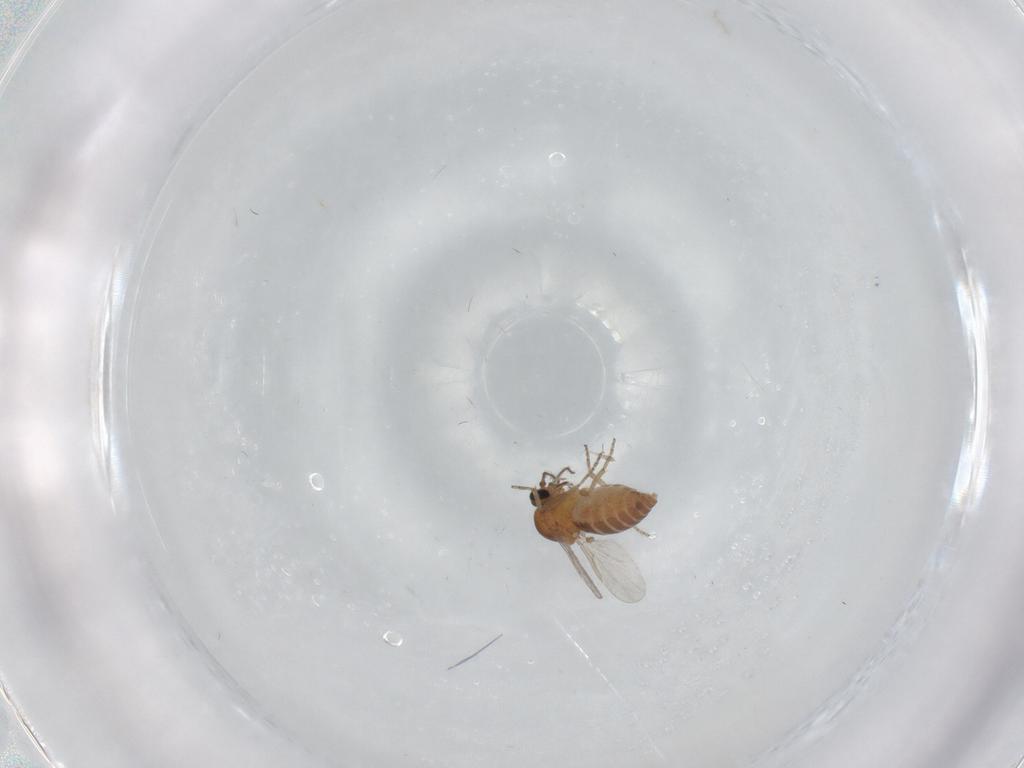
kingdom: Animalia
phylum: Arthropoda
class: Insecta
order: Diptera
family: Ceratopogonidae
